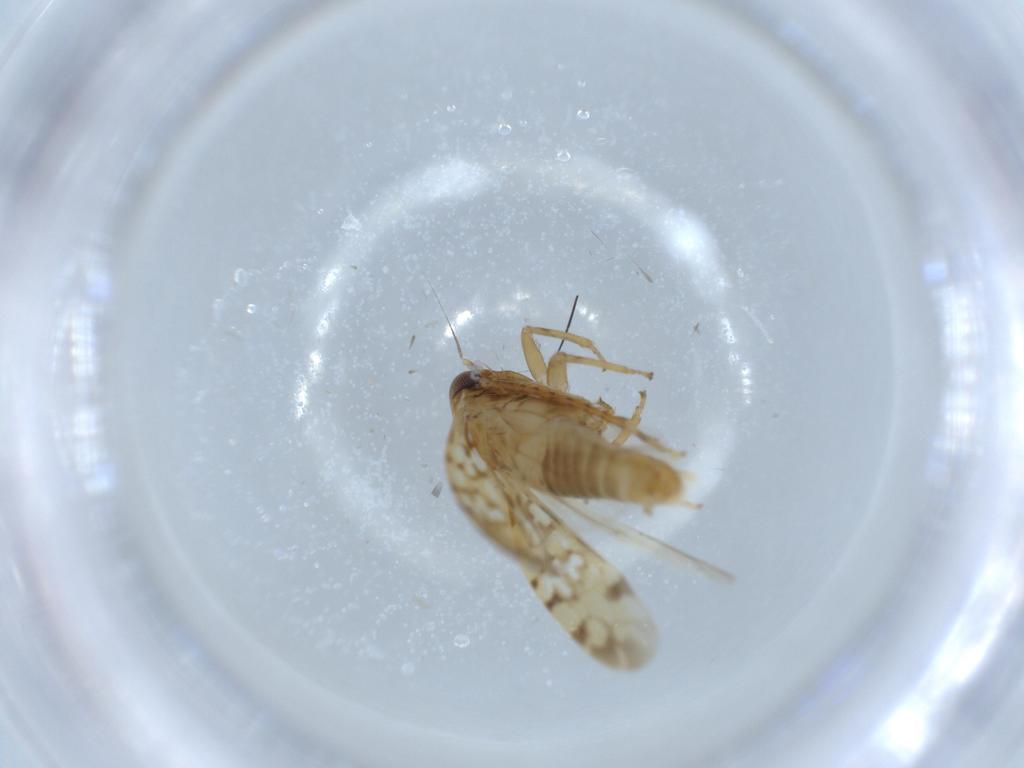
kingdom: Animalia
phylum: Arthropoda
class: Insecta
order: Hemiptera
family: Cicadellidae
